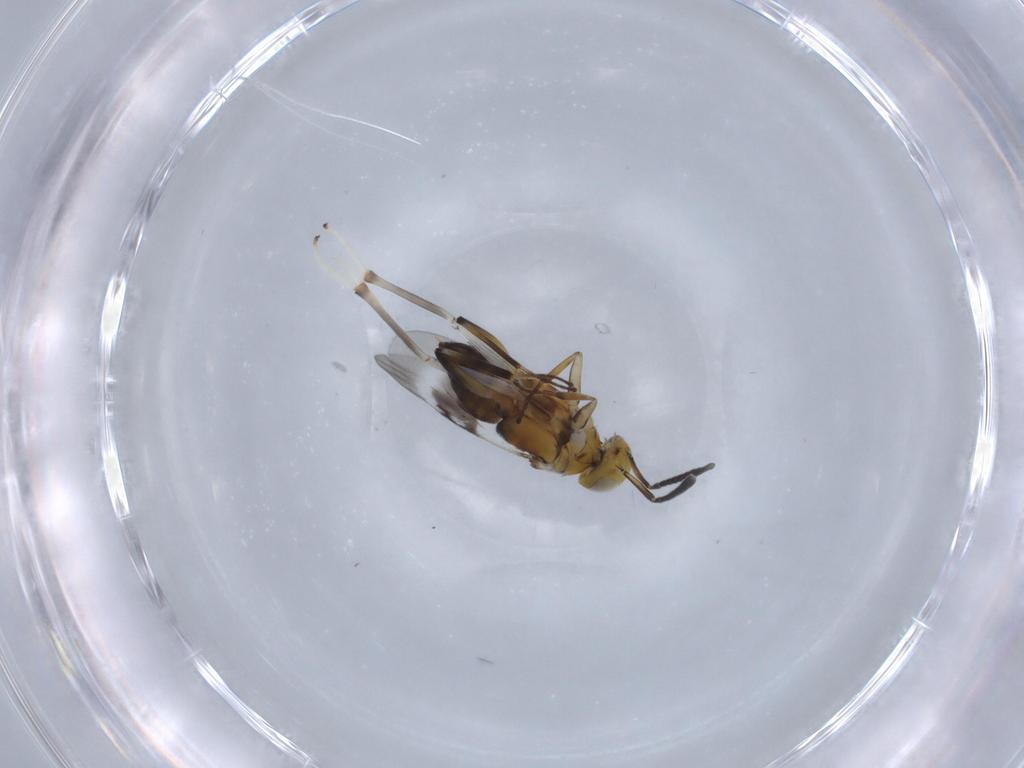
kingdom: Animalia
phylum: Arthropoda
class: Insecta
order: Hymenoptera
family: Encyrtidae
